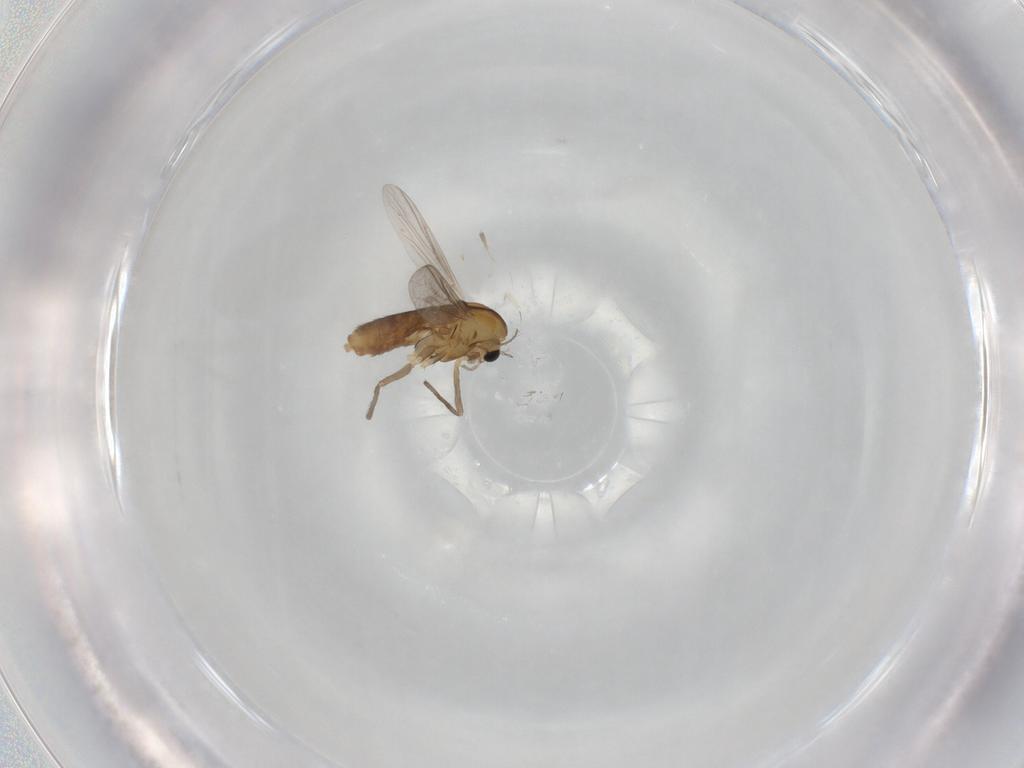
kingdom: Animalia
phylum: Arthropoda
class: Insecta
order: Diptera
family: Chironomidae
